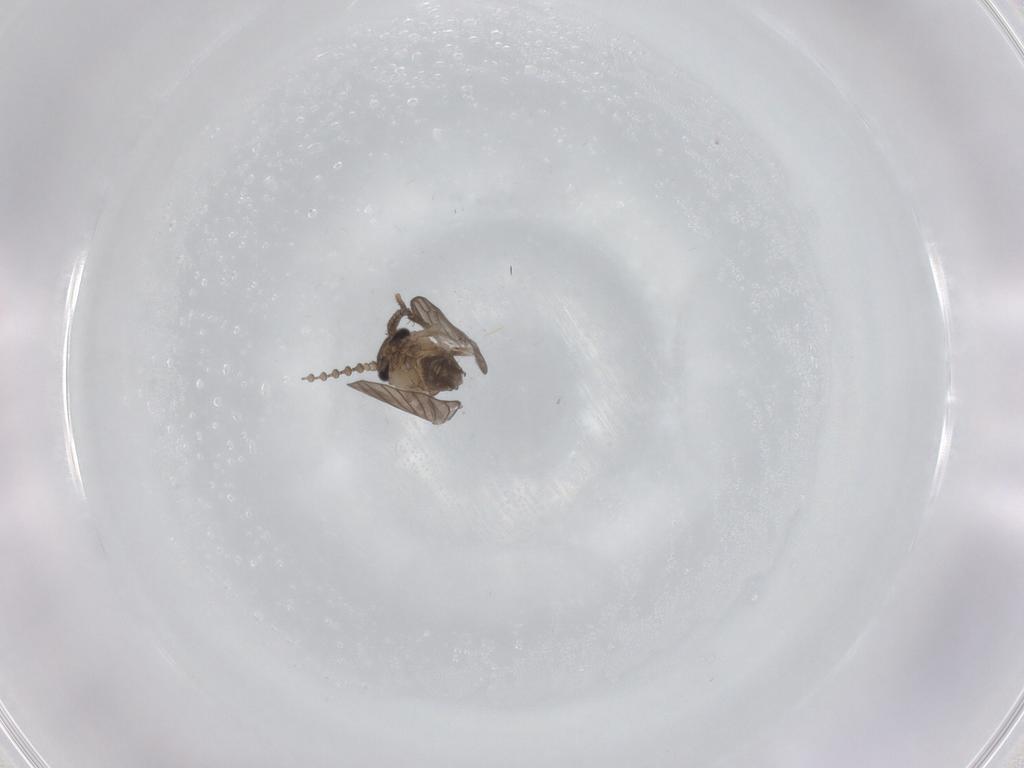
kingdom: Animalia
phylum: Arthropoda
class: Insecta
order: Diptera
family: Psychodidae
